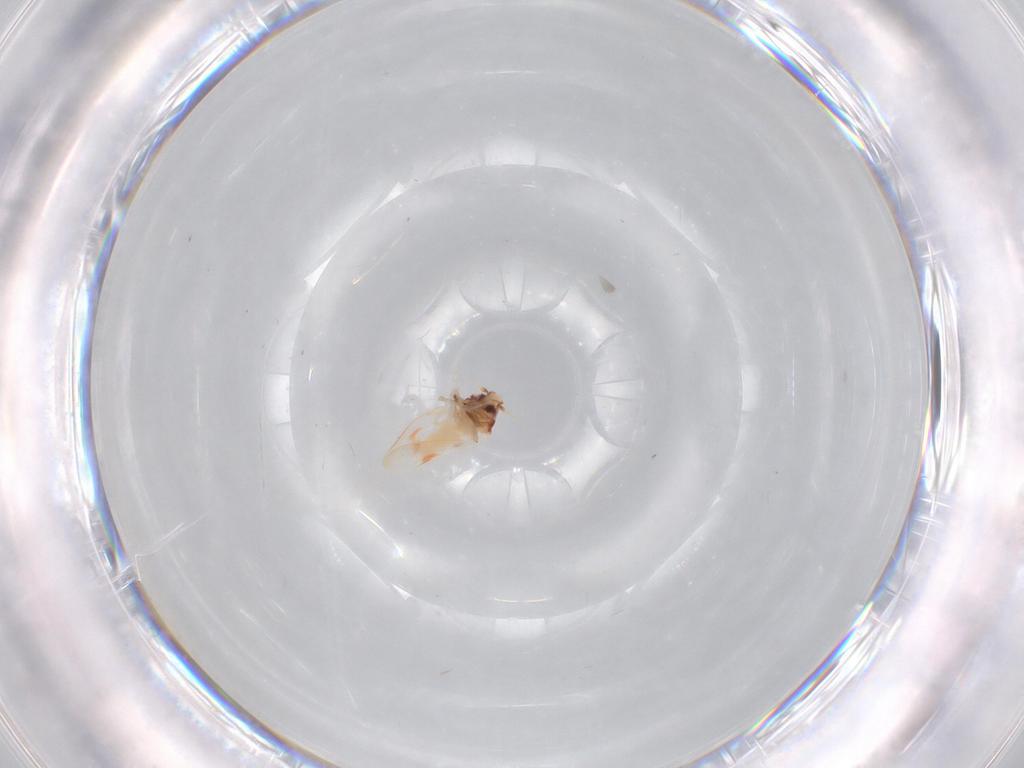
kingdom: Animalia
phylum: Arthropoda
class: Insecta
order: Hemiptera
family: Aleyrodidae
